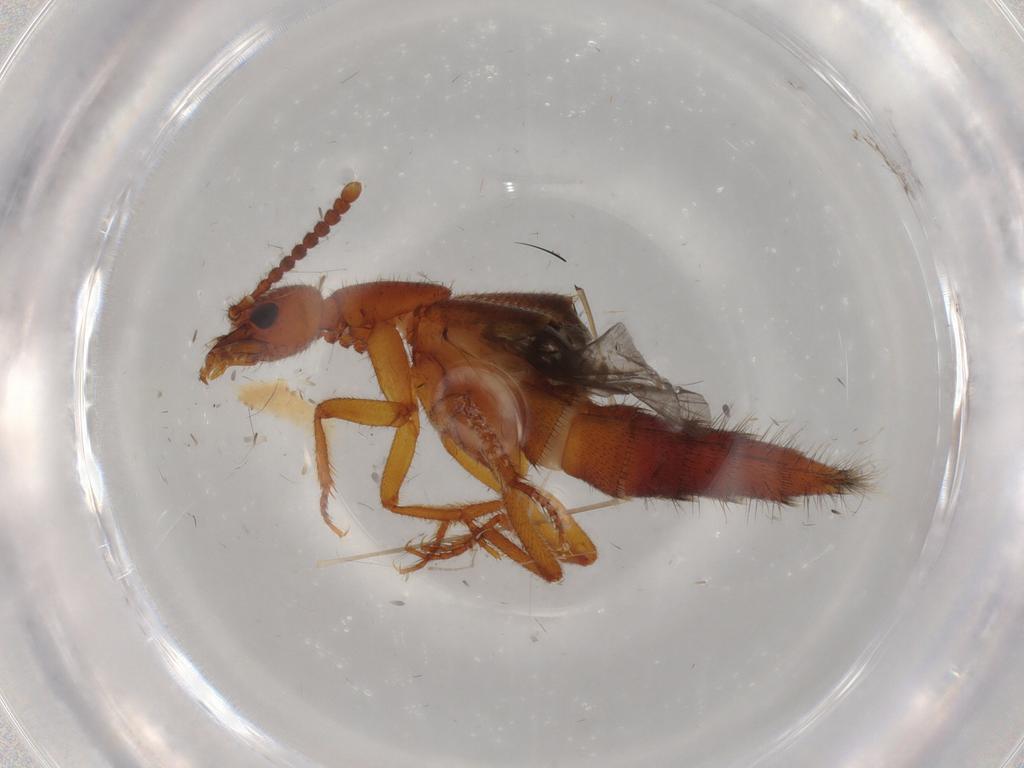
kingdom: Animalia
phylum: Arthropoda
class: Insecta
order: Coleoptera
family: Staphylinidae
